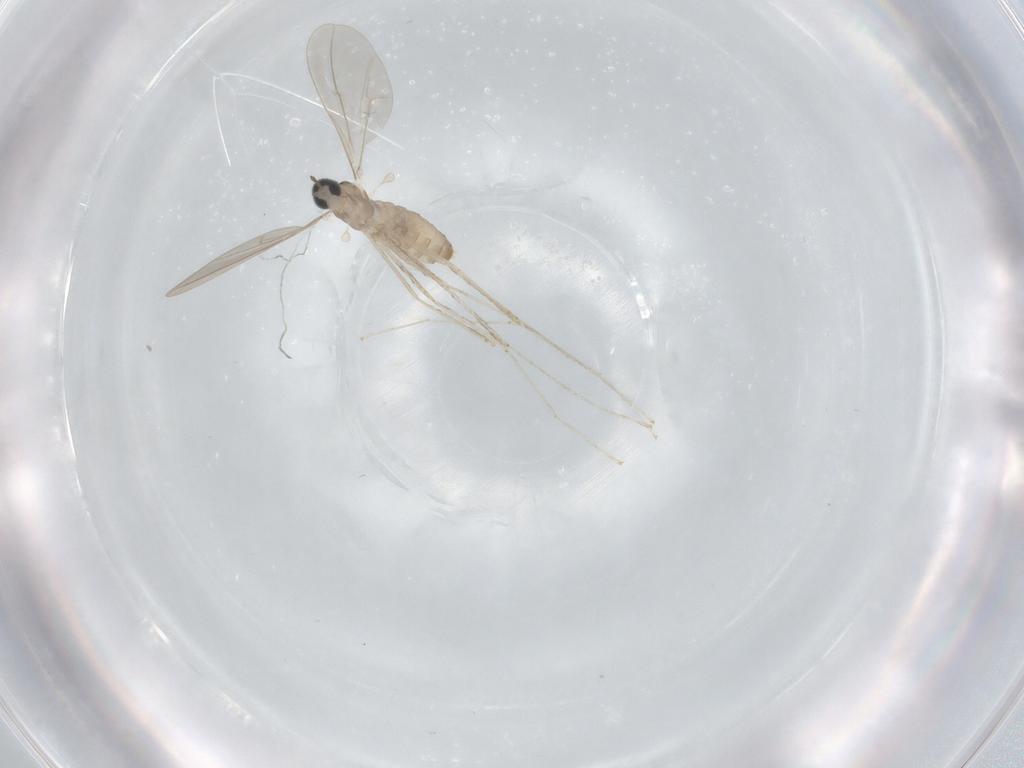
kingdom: Animalia
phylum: Arthropoda
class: Insecta
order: Diptera
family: Cecidomyiidae
